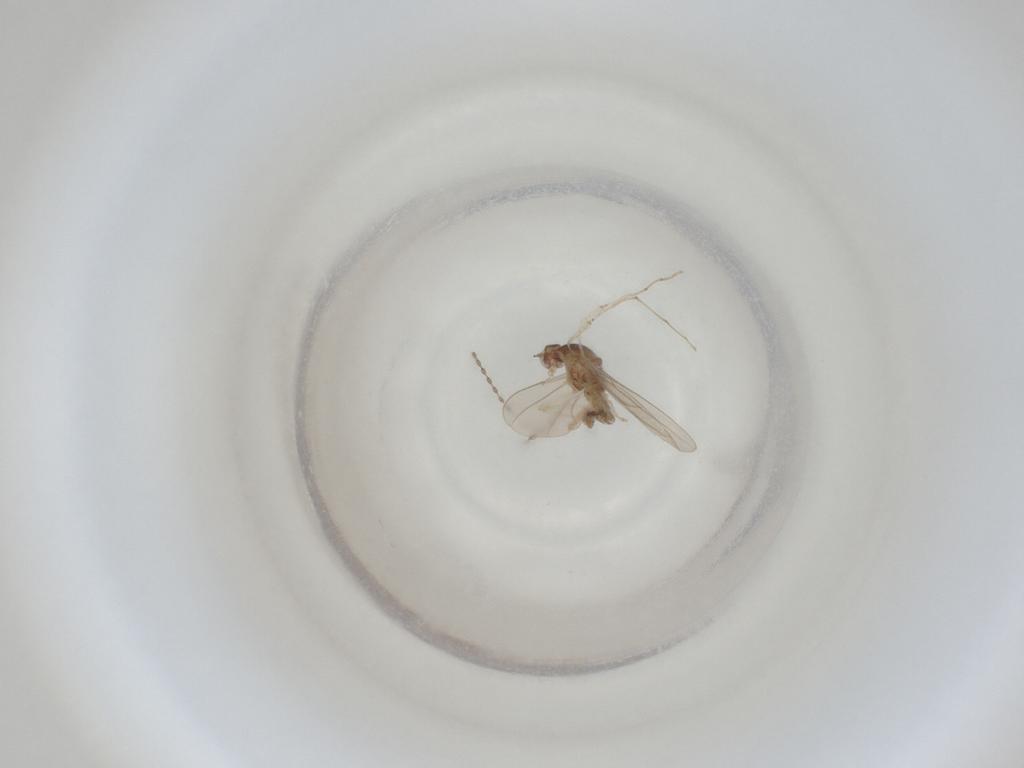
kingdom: Animalia
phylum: Arthropoda
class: Insecta
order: Diptera
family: Cecidomyiidae
